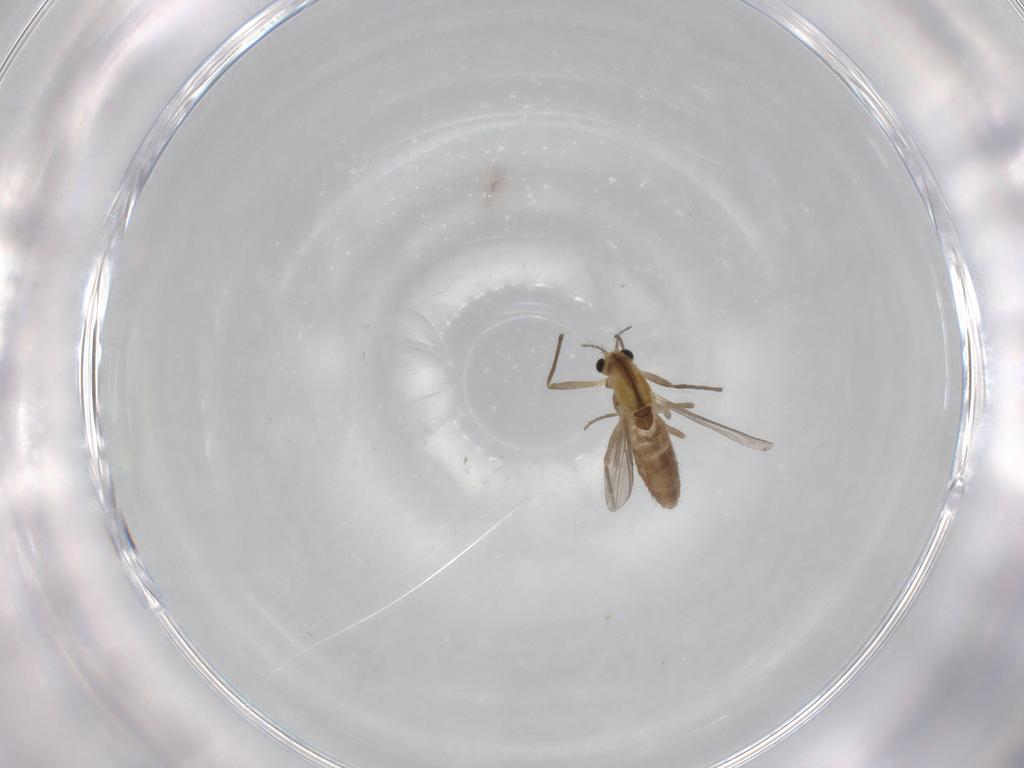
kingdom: Animalia
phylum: Arthropoda
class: Insecta
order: Diptera
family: Chironomidae
